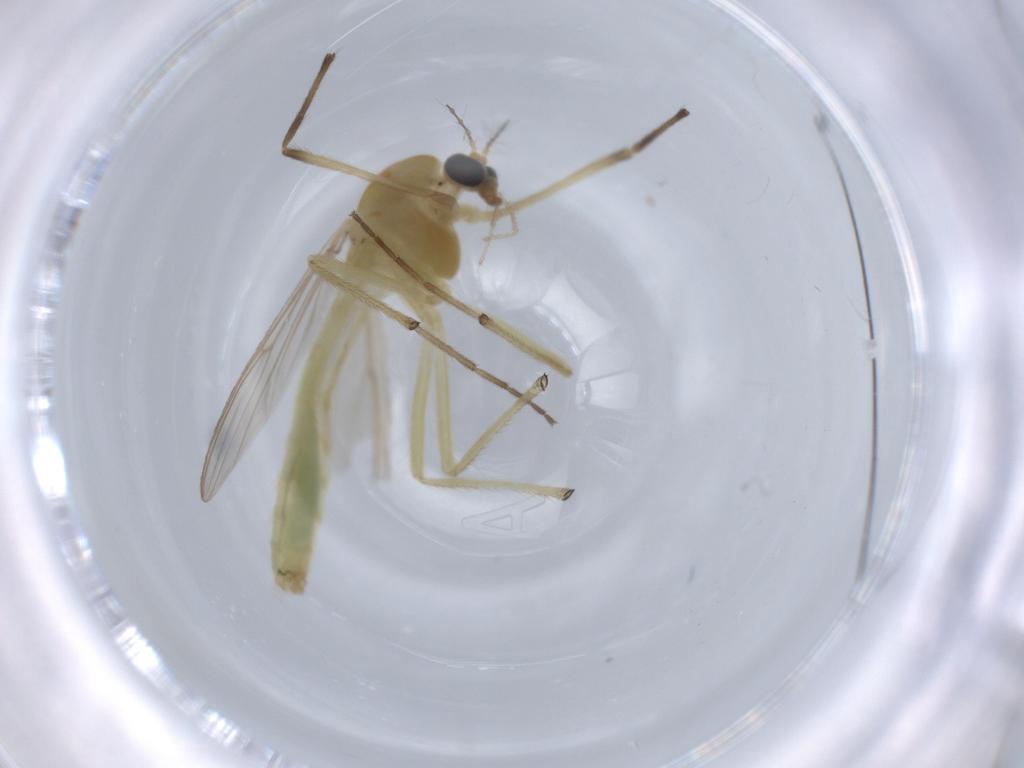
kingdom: Animalia
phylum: Arthropoda
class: Insecta
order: Diptera
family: Chironomidae
